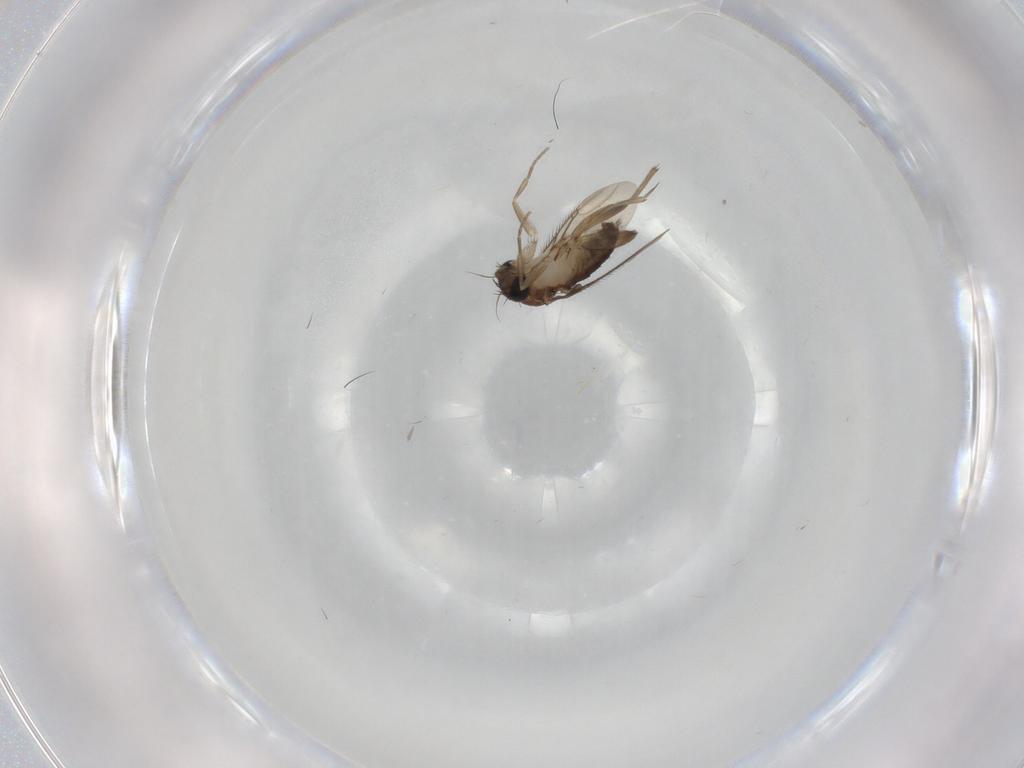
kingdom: Animalia
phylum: Arthropoda
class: Insecta
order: Diptera
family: Phoridae
